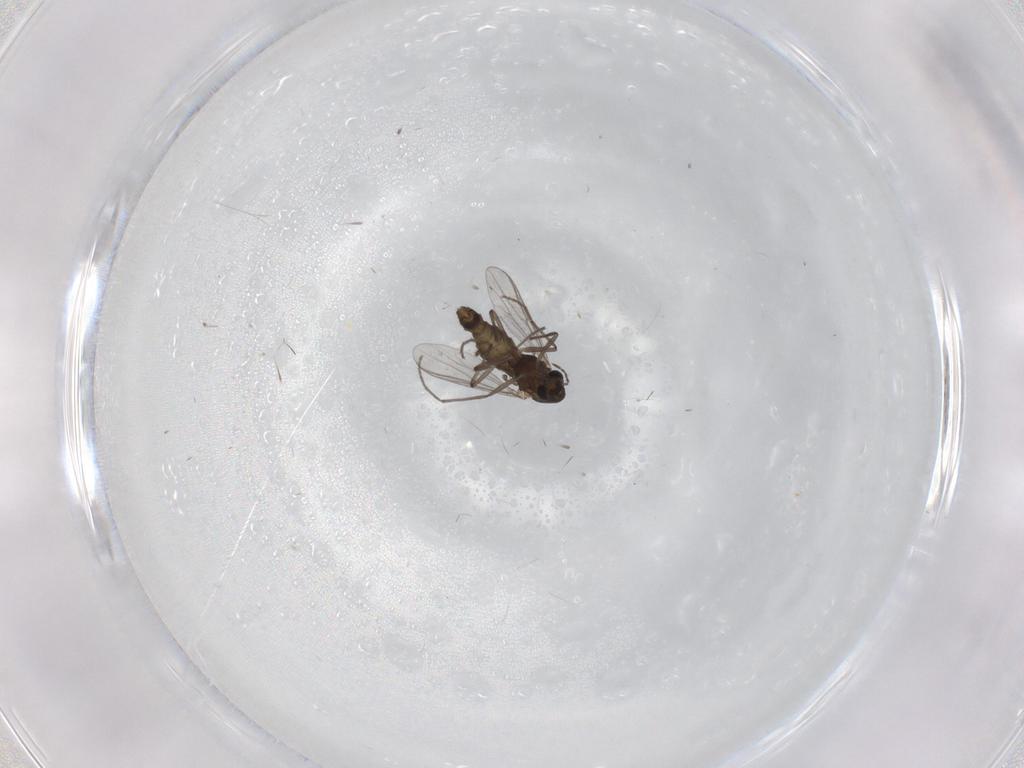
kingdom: Animalia
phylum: Arthropoda
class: Insecta
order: Diptera
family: Chironomidae
